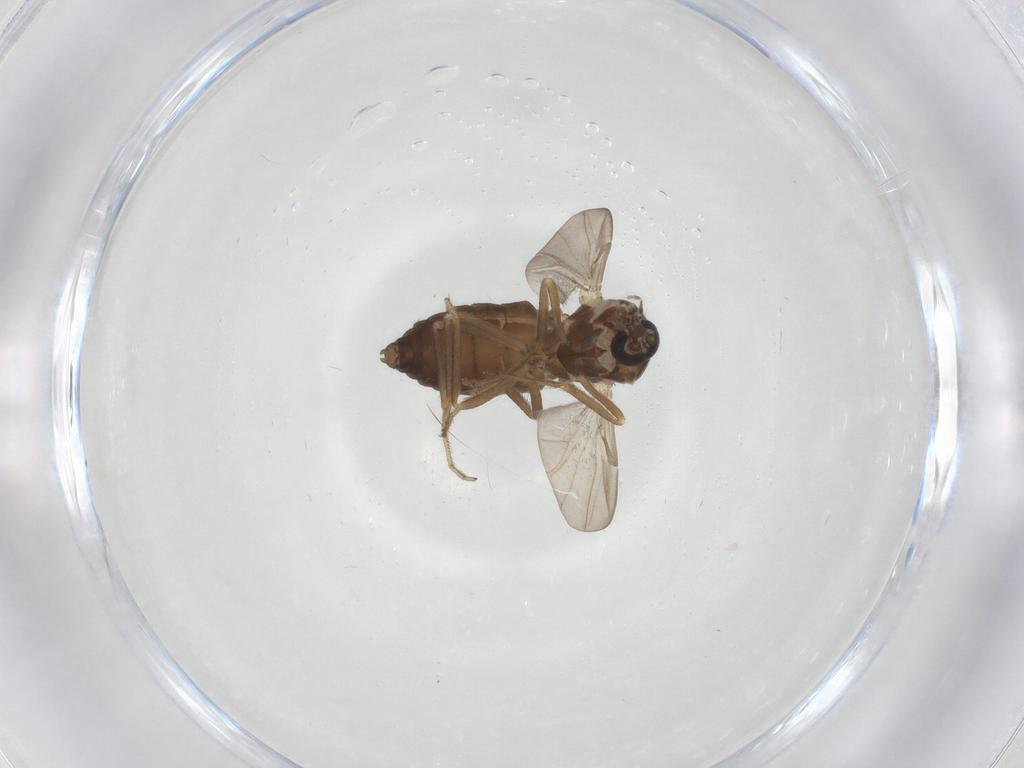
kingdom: Animalia
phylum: Arthropoda
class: Insecta
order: Diptera
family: Ceratopogonidae
